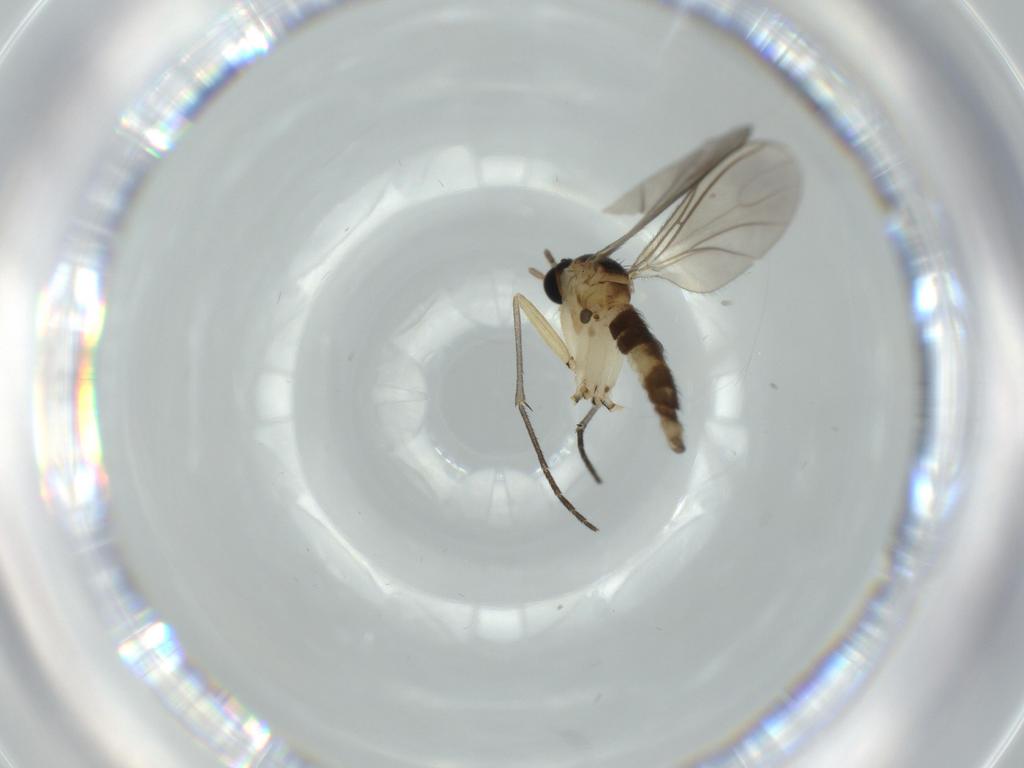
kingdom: Animalia
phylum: Arthropoda
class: Insecta
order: Diptera
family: Sciaridae
